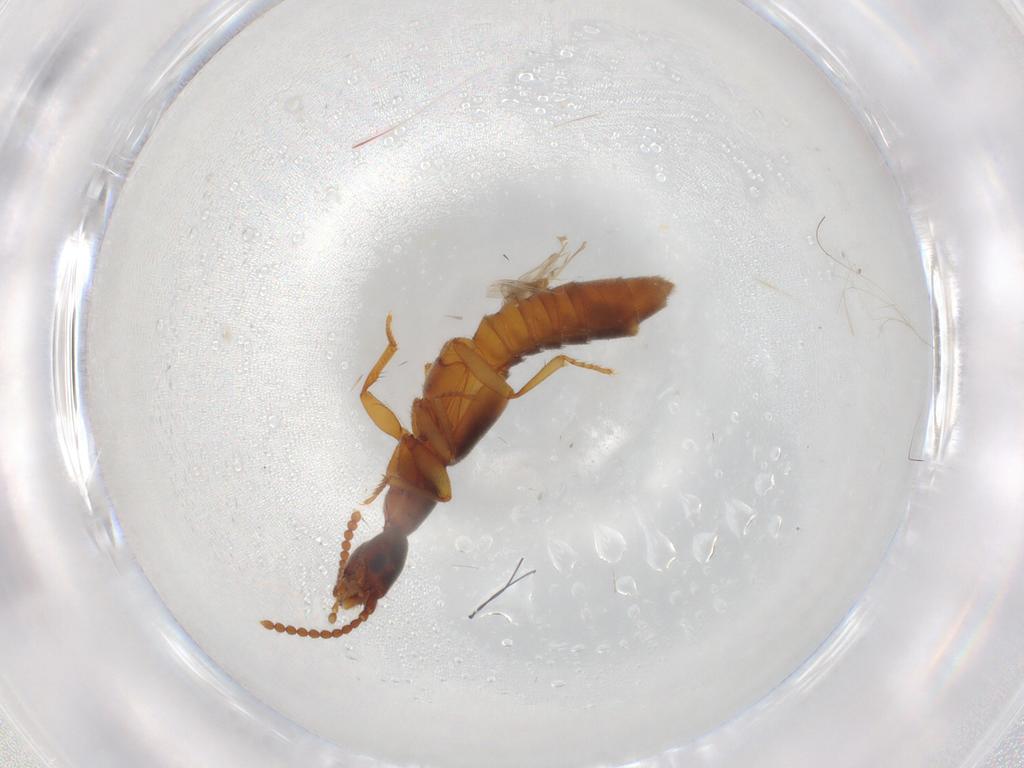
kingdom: Animalia
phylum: Arthropoda
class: Insecta
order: Coleoptera
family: Staphylinidae
